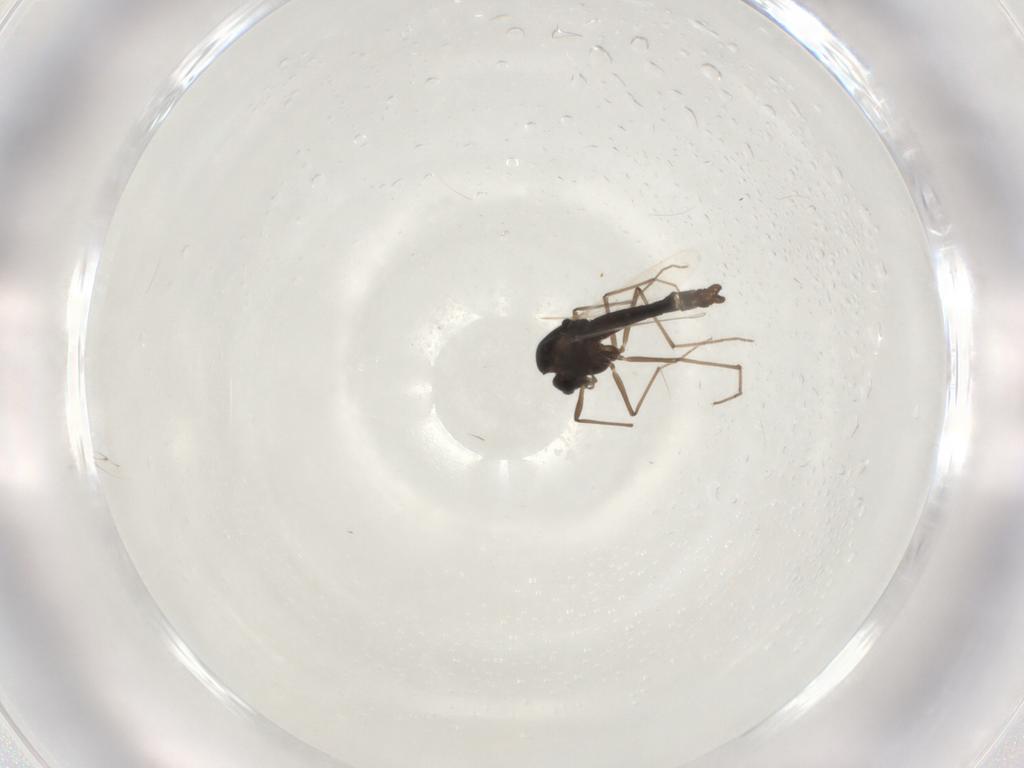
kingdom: Animalia
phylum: Arthropoda
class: Insecta
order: Diptera
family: Chironomidae
